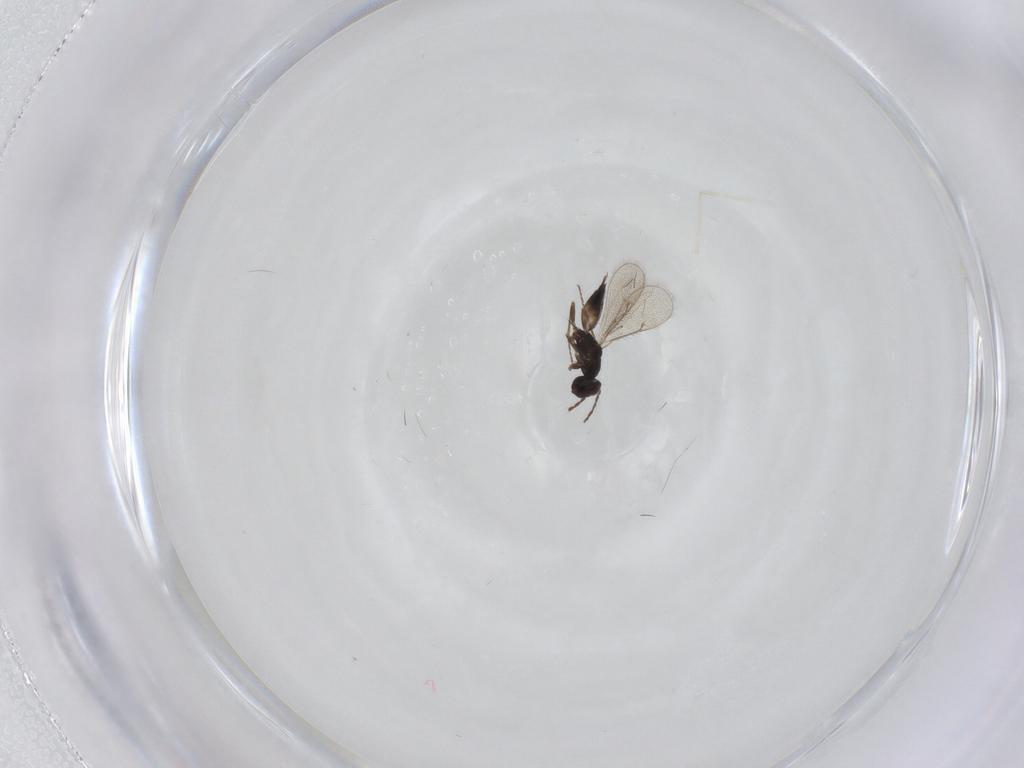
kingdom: Animalia
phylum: Arthropoda
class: Insecta
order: Hymenoptera
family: Eulophidae
